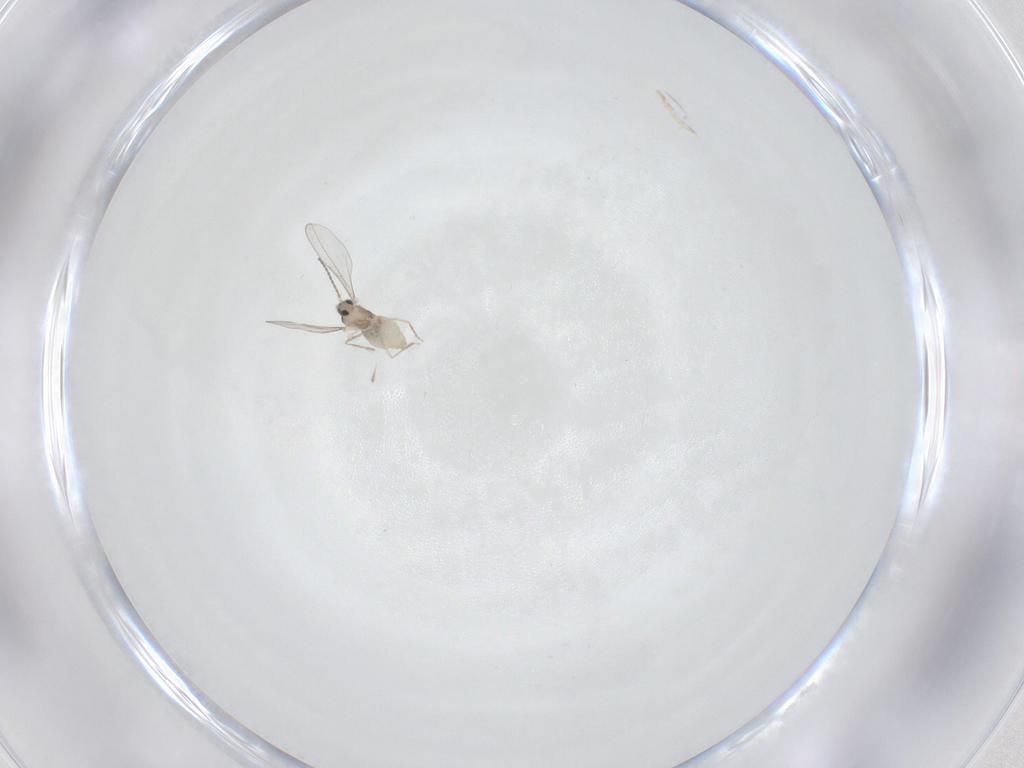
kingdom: Animalia
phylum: Arthropoda
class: Insecta
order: Diptera
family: Cecidomyiidae
